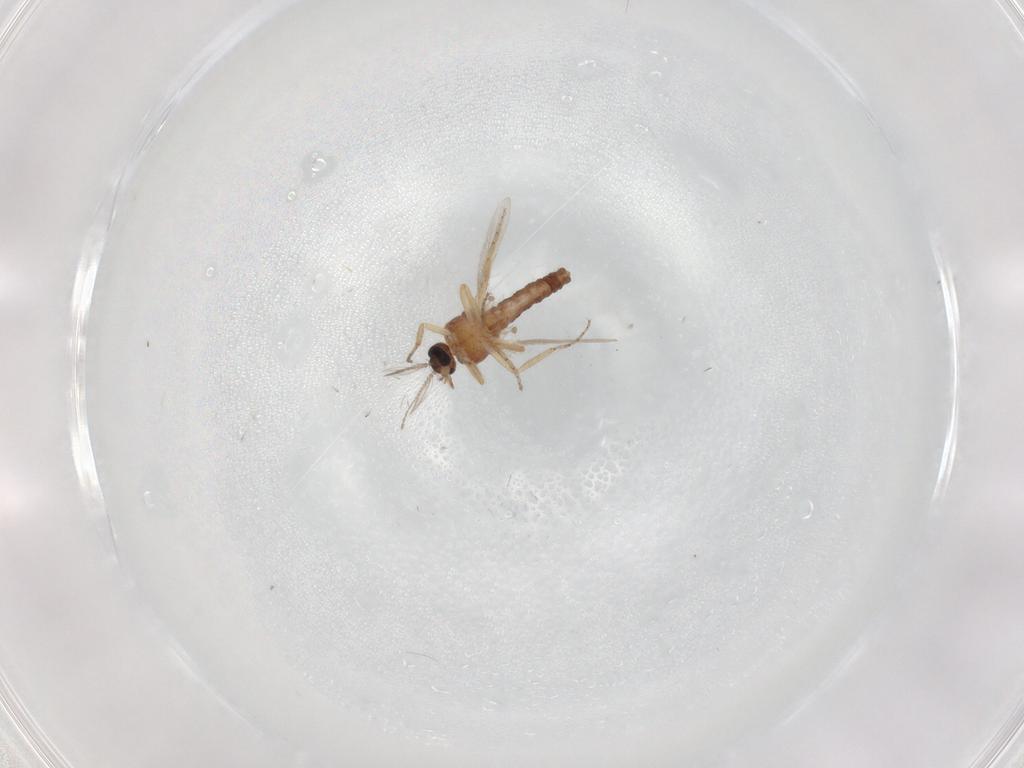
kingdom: Animalia
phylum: Arthropoda
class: Insecta
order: Diptera
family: Ceratopogonidae
